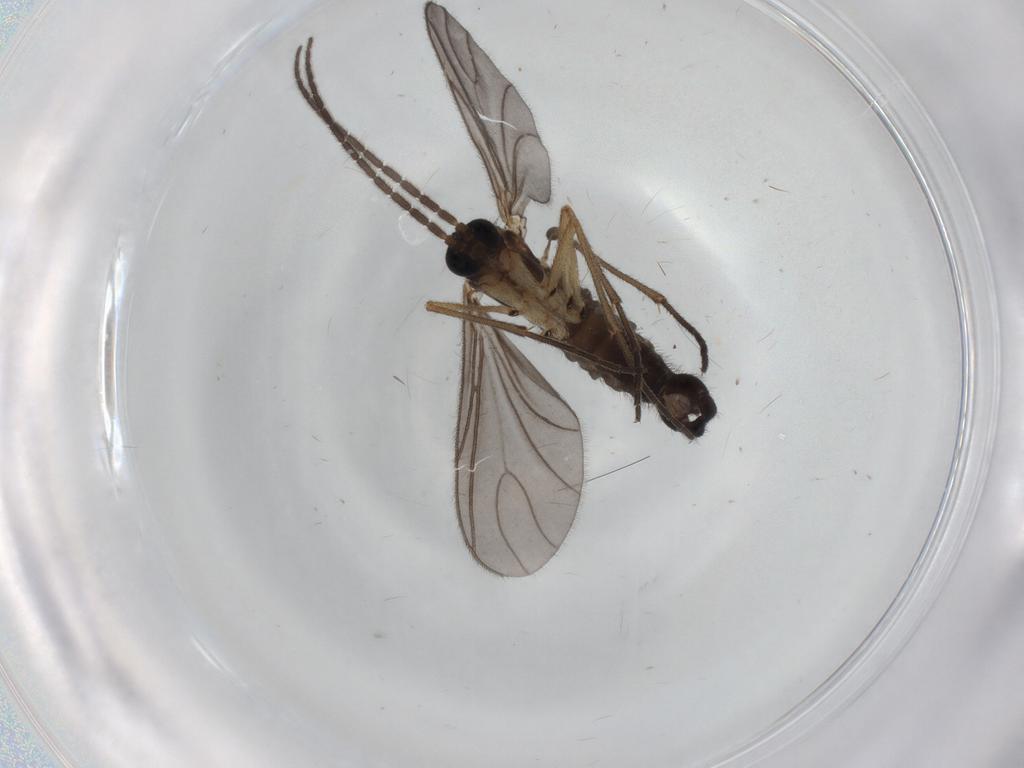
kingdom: Animalia
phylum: Arthropoda
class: Insecta
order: Diptera
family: Sciaridae
